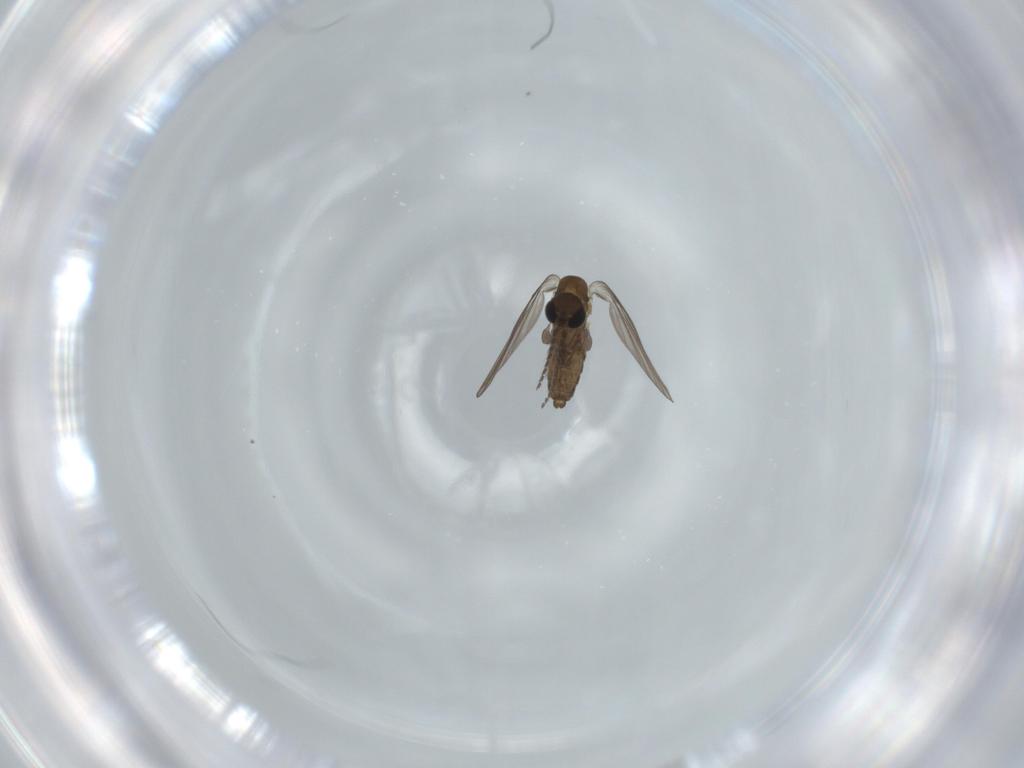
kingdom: Animalia
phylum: Arthropoda
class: Insecta
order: Diptera
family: Psychodidae
